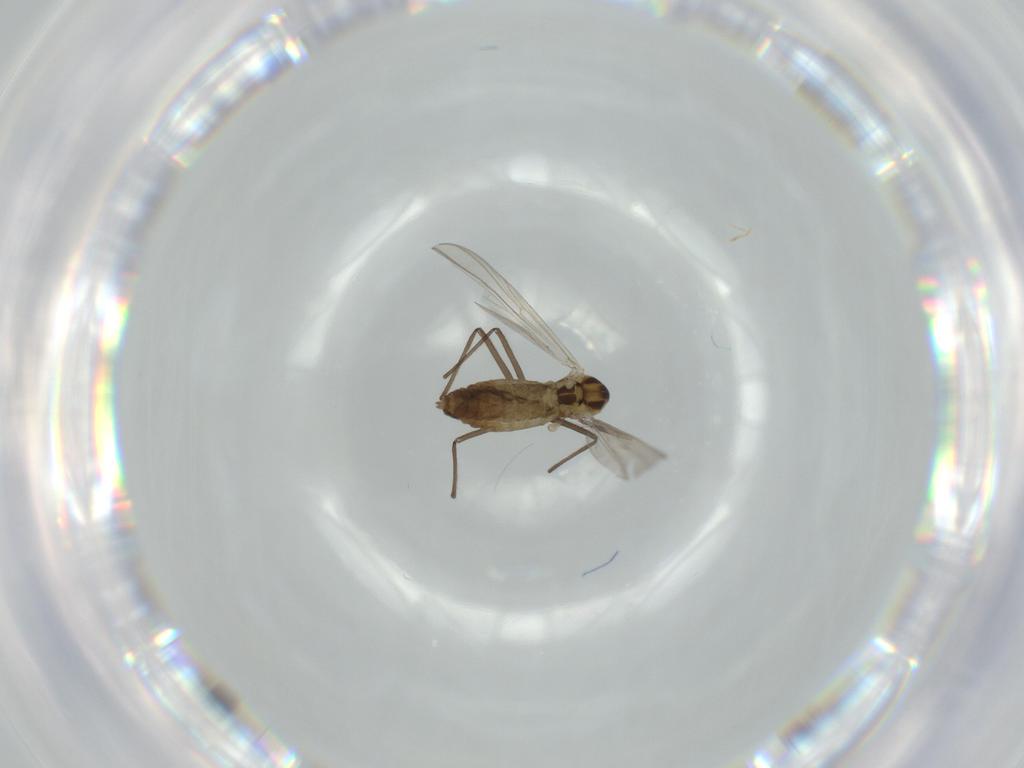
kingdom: Animalia
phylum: Arthropoda
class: Insecta
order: Diptera
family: Chironomidae
